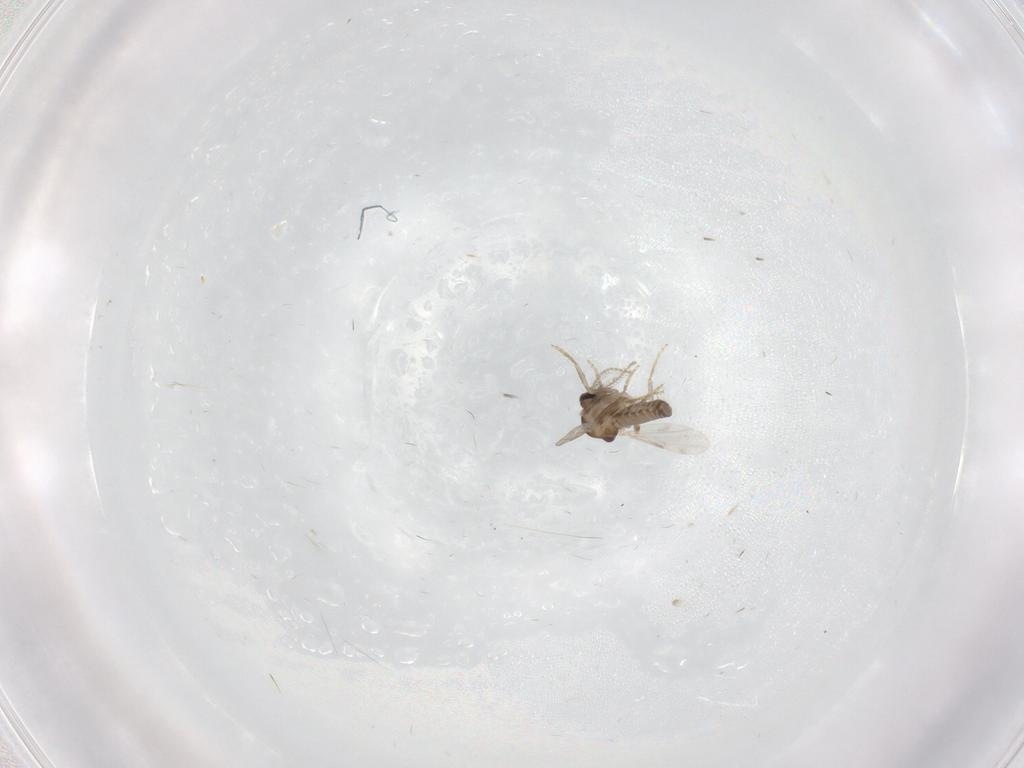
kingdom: Animalia
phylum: Arthropoda
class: Insecta
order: Diptera
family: Ceratopogonidae
